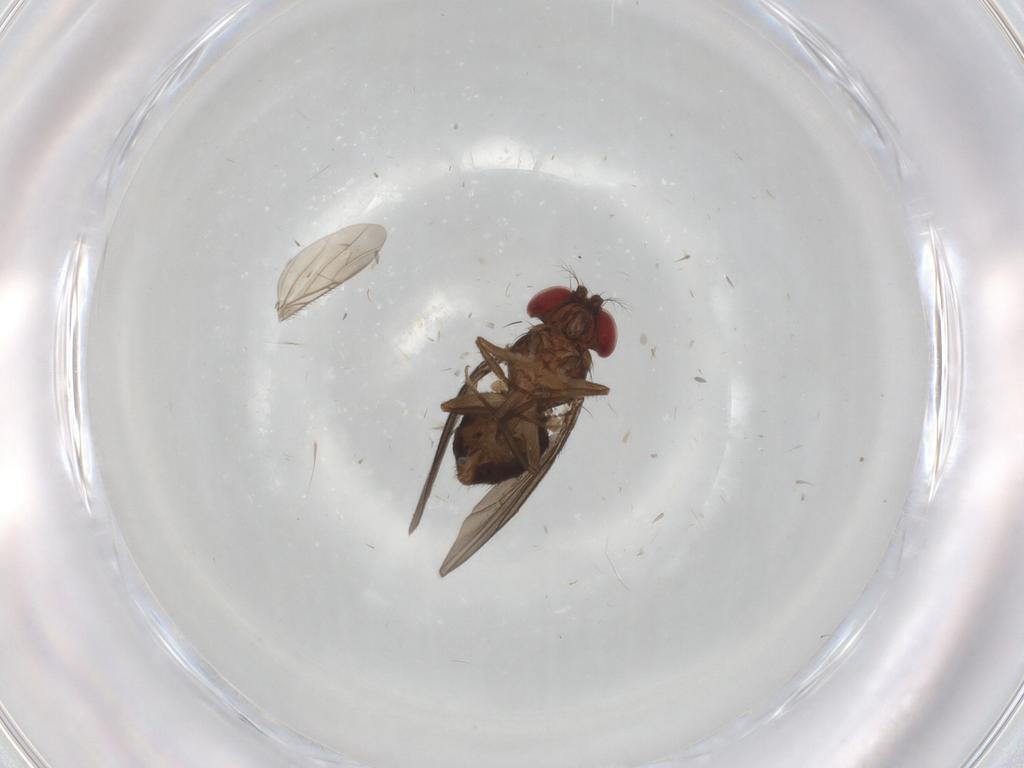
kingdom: Animalia
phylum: Arthropoda
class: Insecta
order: Diptera
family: Drosophilidae
